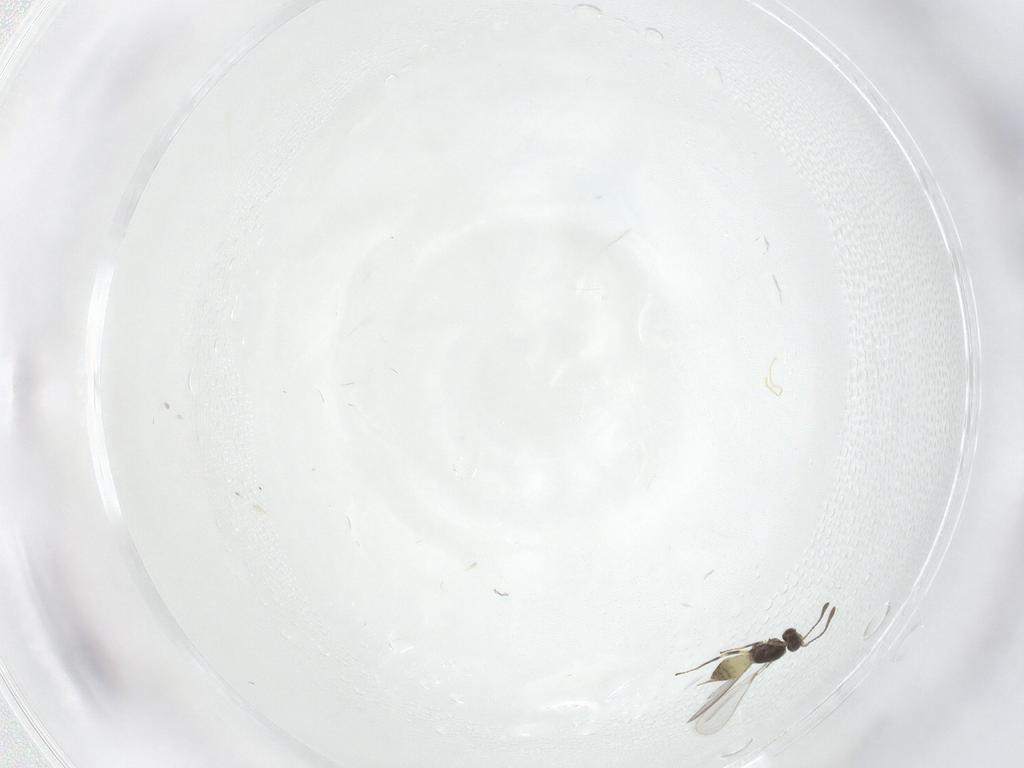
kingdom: Animalia
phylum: Arthropoda
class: Insecta
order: Hymenoptera
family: Mymaridae
